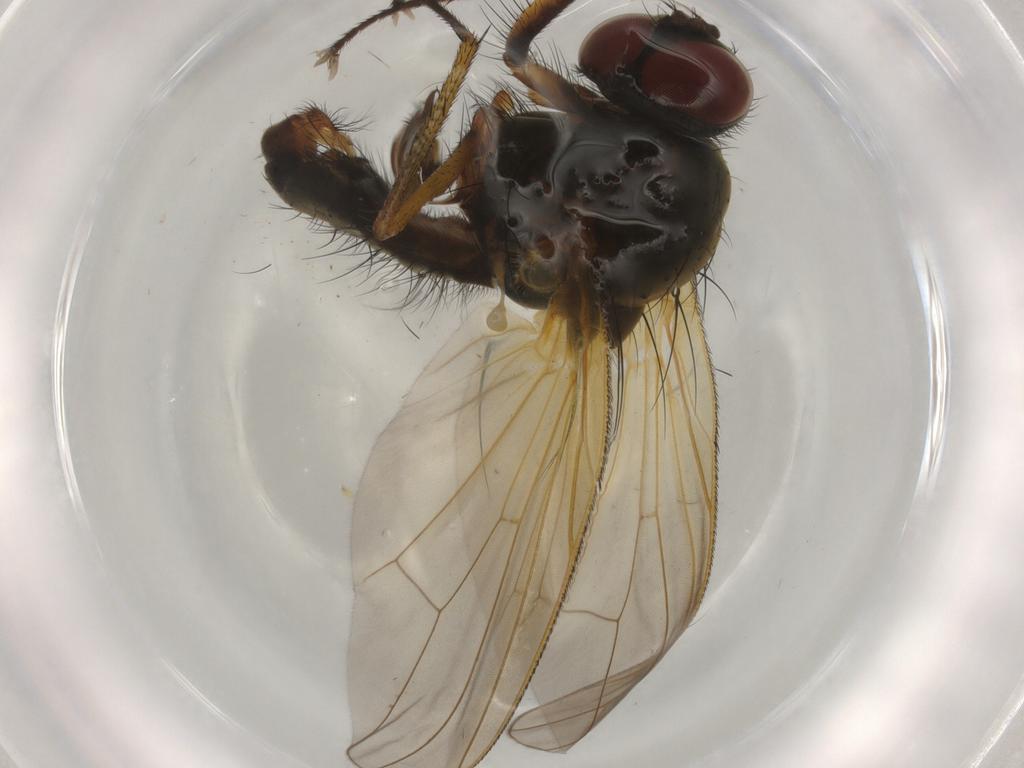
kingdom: Animalia
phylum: Arthropoda
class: Insecta
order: Diptera
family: Anthomyiidae
